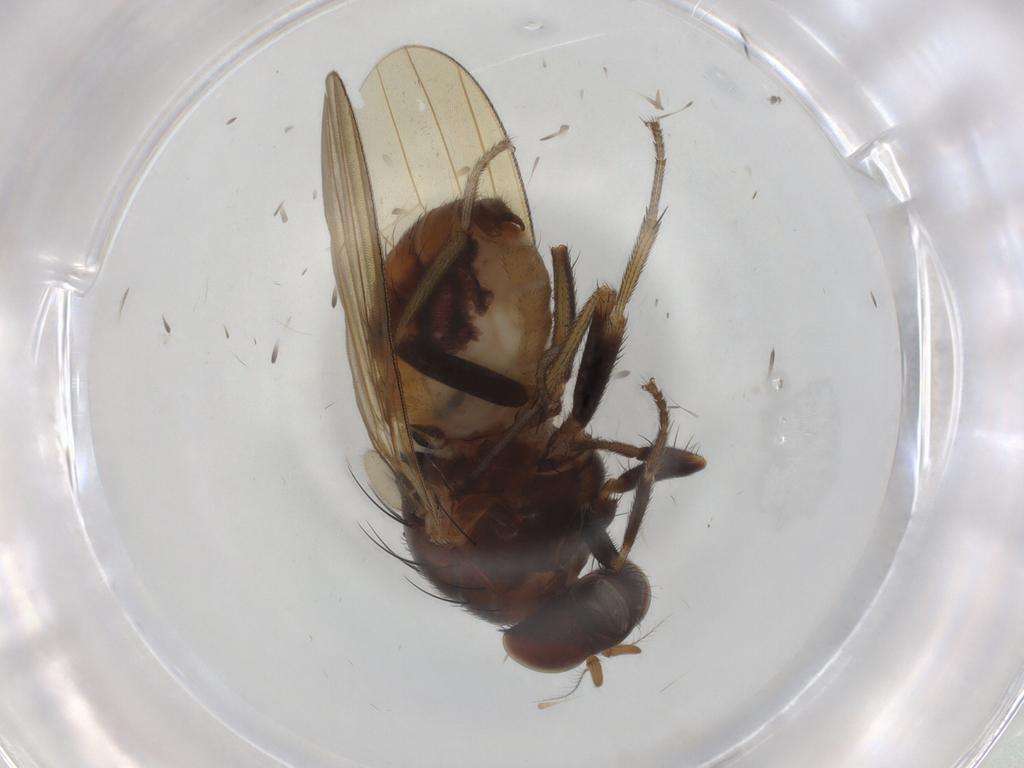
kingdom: Animalia
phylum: Arthropoda
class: Insecta
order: Diptera
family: Lauxaniidae
